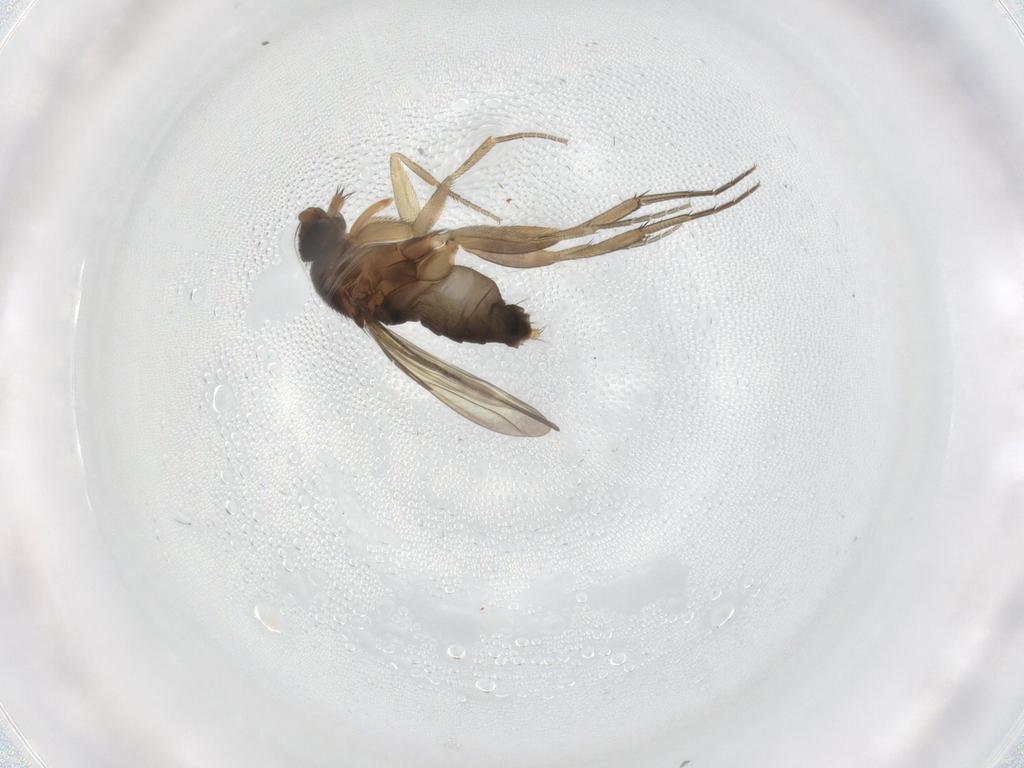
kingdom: Animalia
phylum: Arthropoda
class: Insecta
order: Diptera
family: Phoridae
